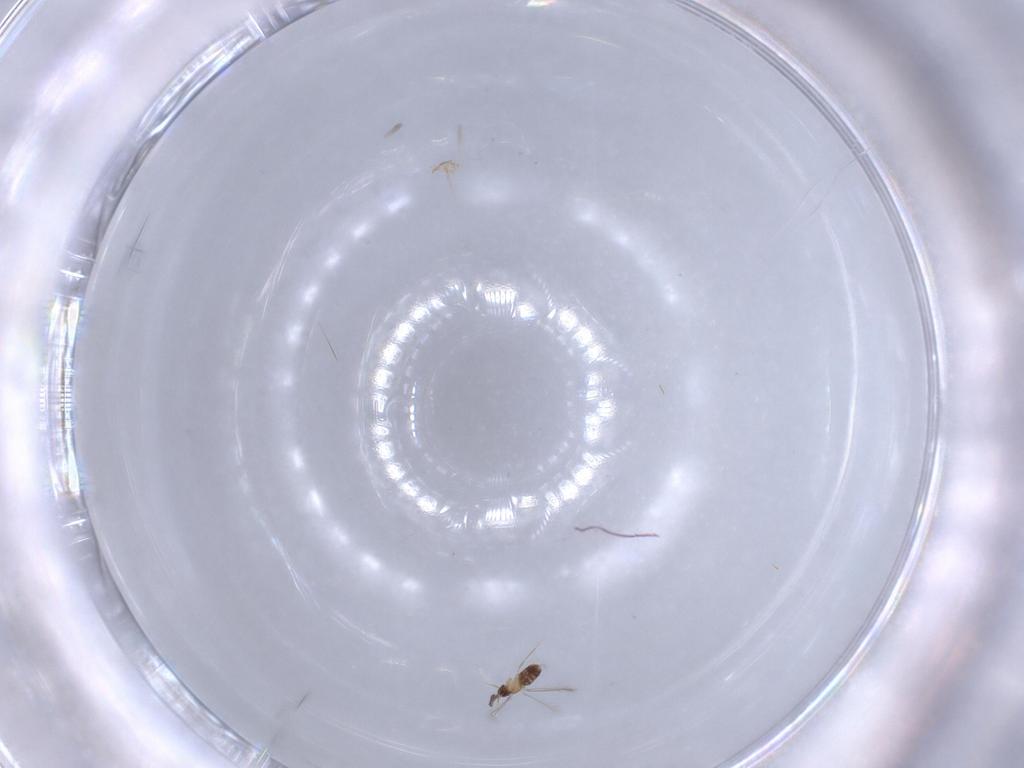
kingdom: Animalia
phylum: Arthropoda
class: Insecta
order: Hymenoptera
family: Mymaridae
